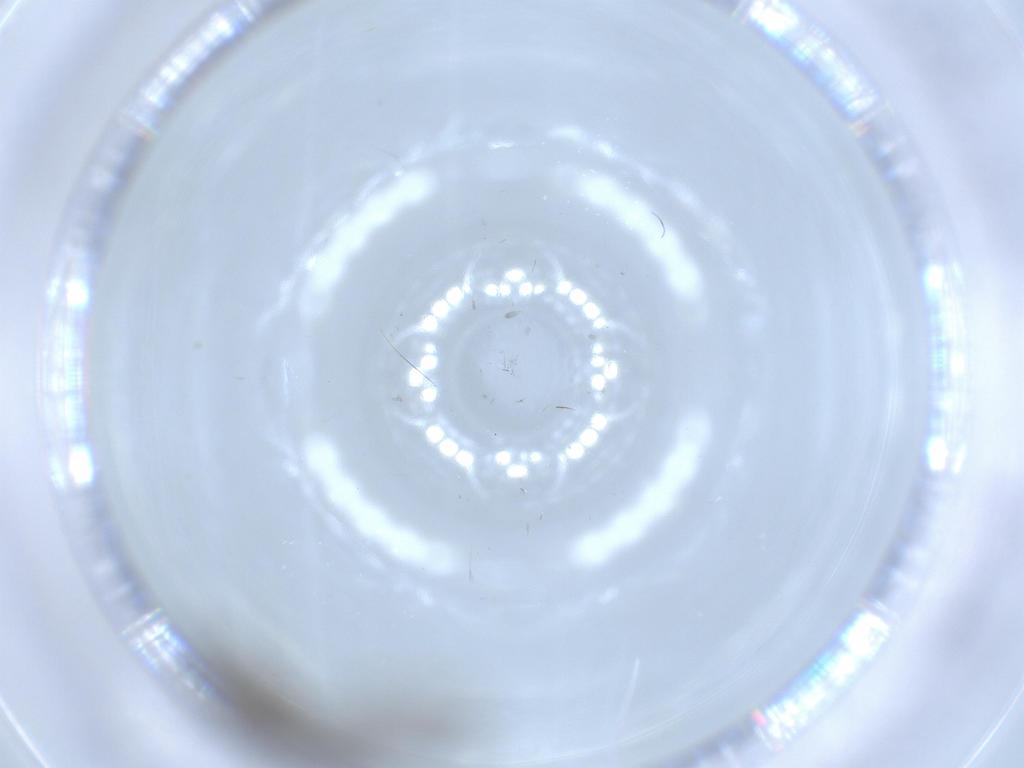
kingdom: Animalia
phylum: Arthropoda
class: Insecta
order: Diptera
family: Sciaridae
